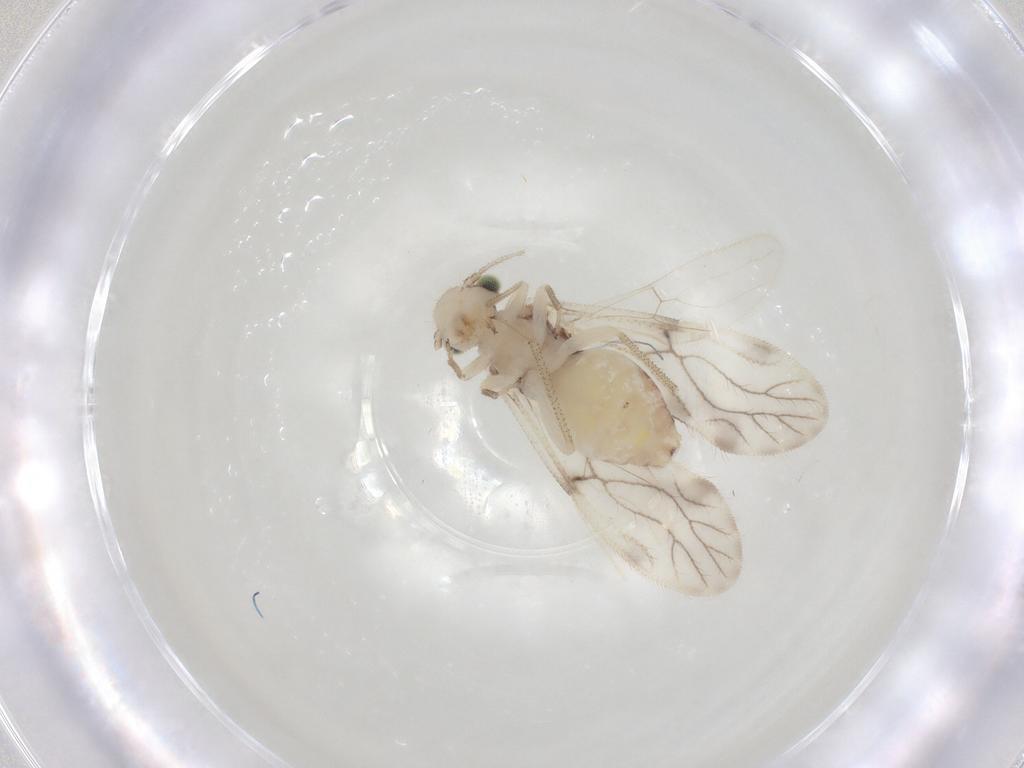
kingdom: Animalia
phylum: Arthropoda
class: Insecta
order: Psocodea
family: Pseudocaeciliidae
